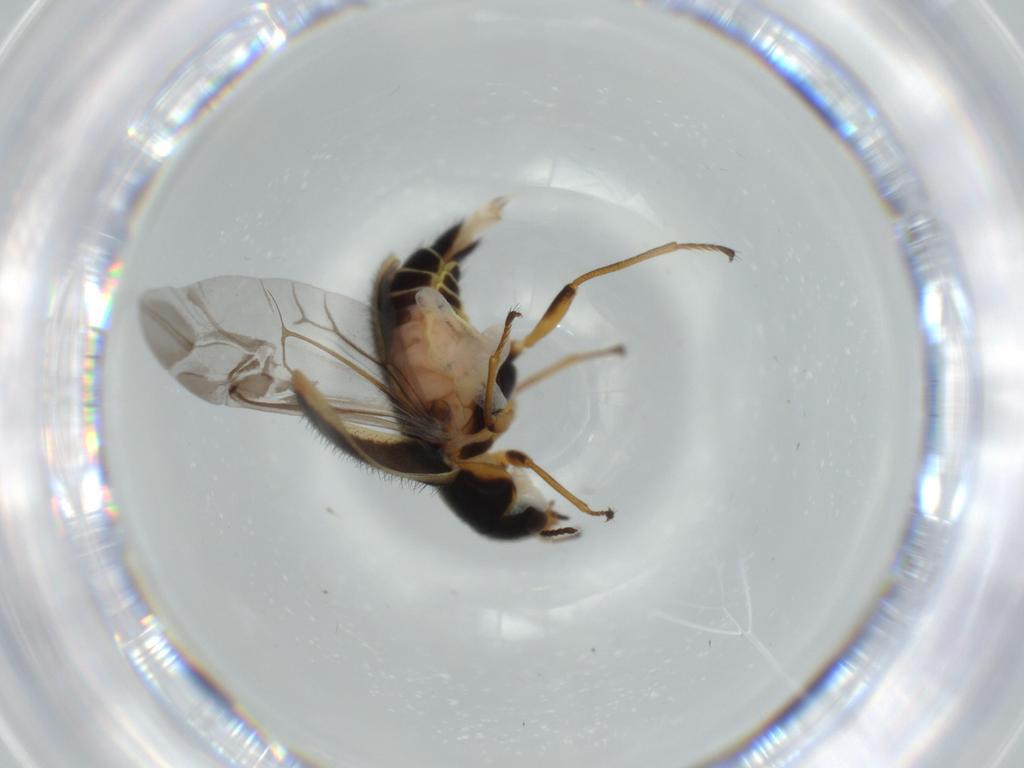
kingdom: Animalia
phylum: Arthropoda
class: Insecta
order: Coleoptera
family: Melyridae
